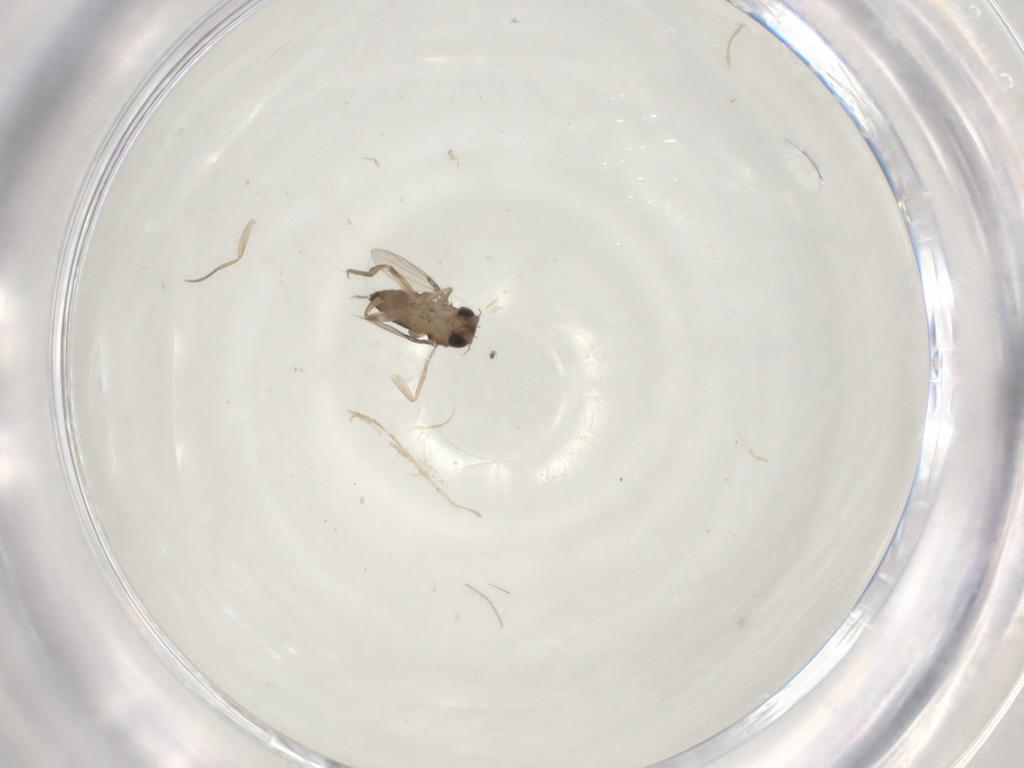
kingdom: Animalia
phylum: Arthropoda
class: Insecta
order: Diptera
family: Phoridae
